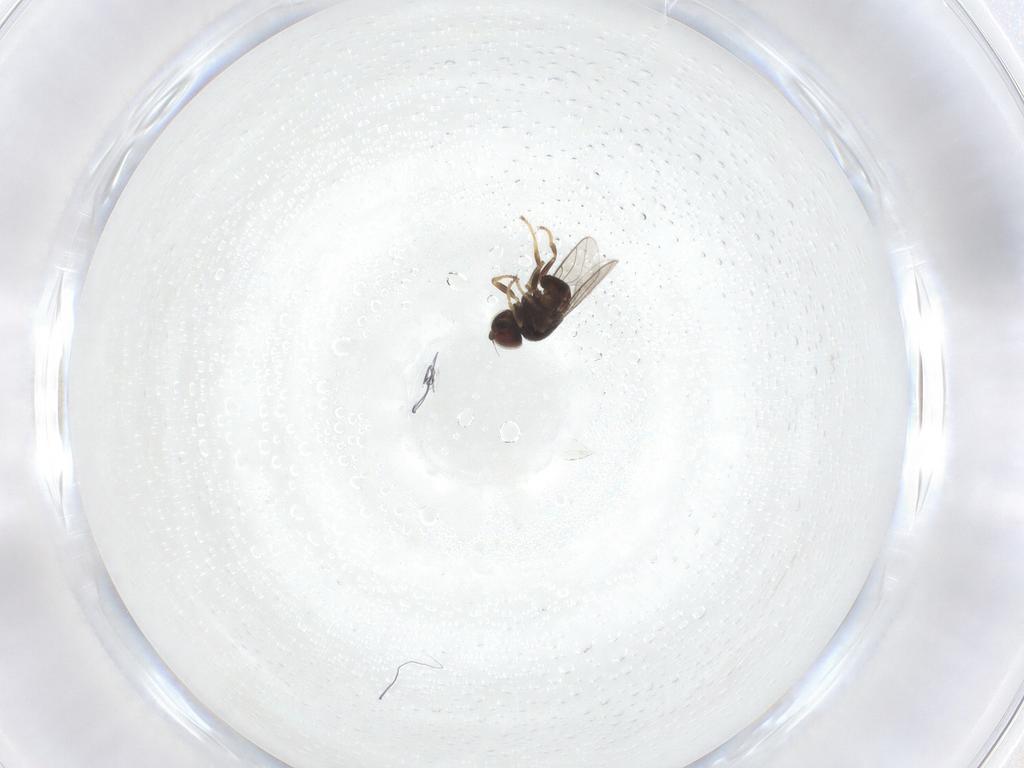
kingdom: Animalia
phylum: Arthropoda
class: Insecta
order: Diptera
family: Chloropidae
